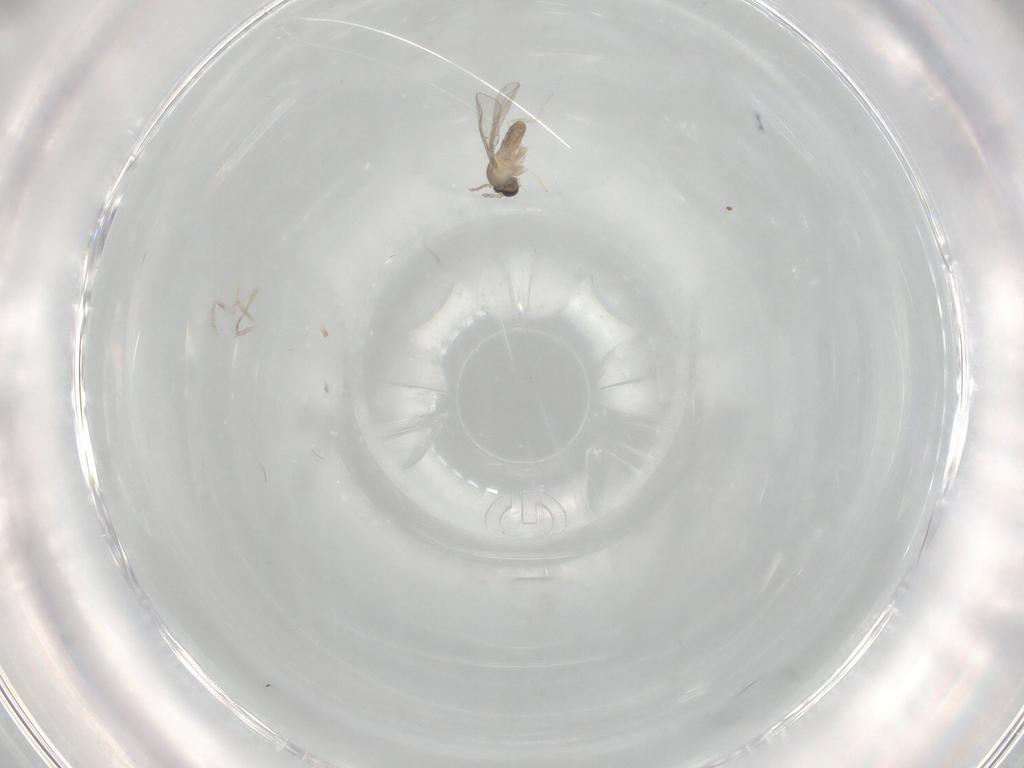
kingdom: Animalia
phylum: Arthropoda
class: Insecta
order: Diptera
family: Cecidomyiidae
